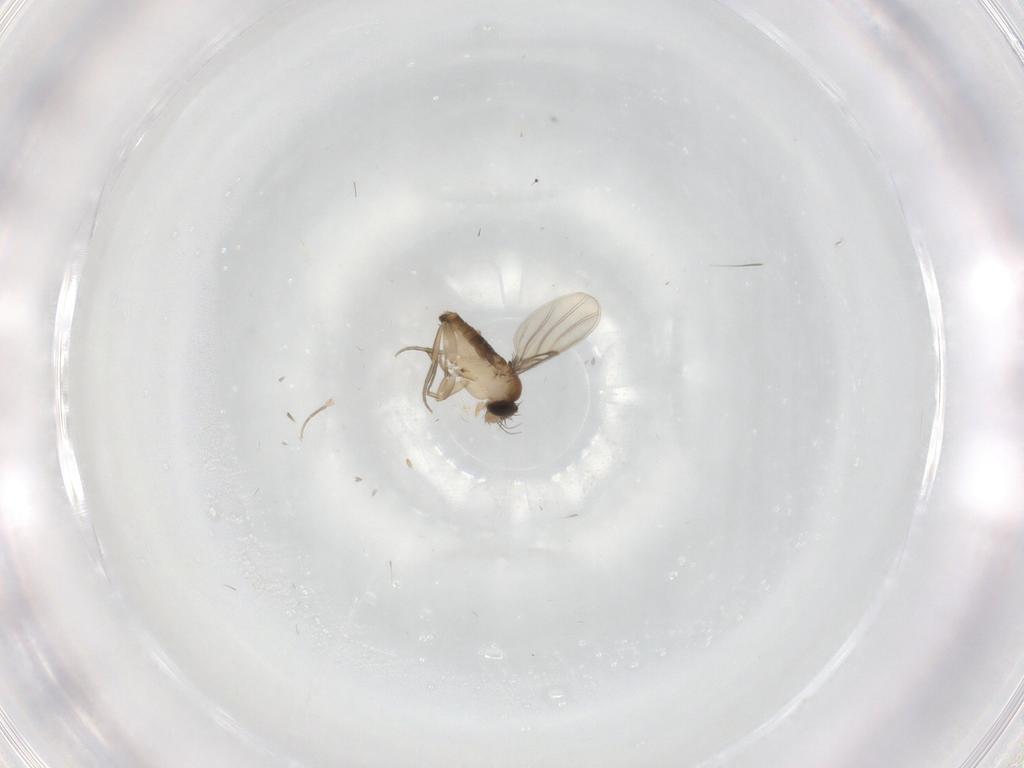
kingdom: Animalia
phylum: Arthropoda
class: Insecta
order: Diptera
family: Phoridae
